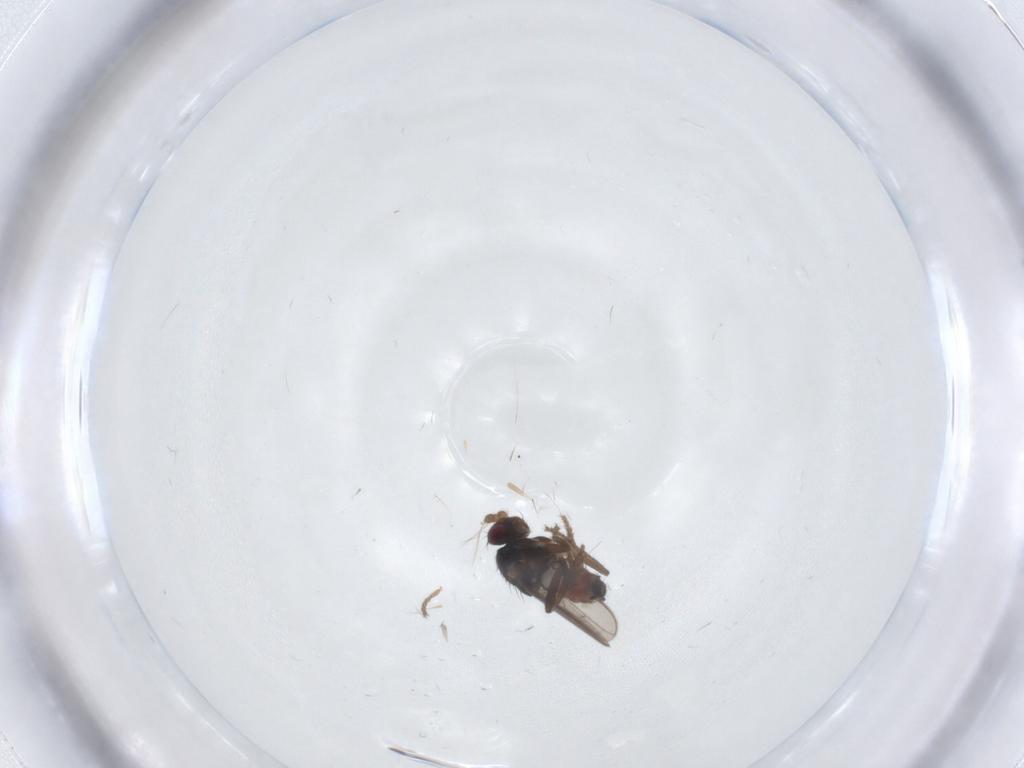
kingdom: Animalia
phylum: Arthropoda
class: Insecta
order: Diptera
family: Sphaeroceridae
